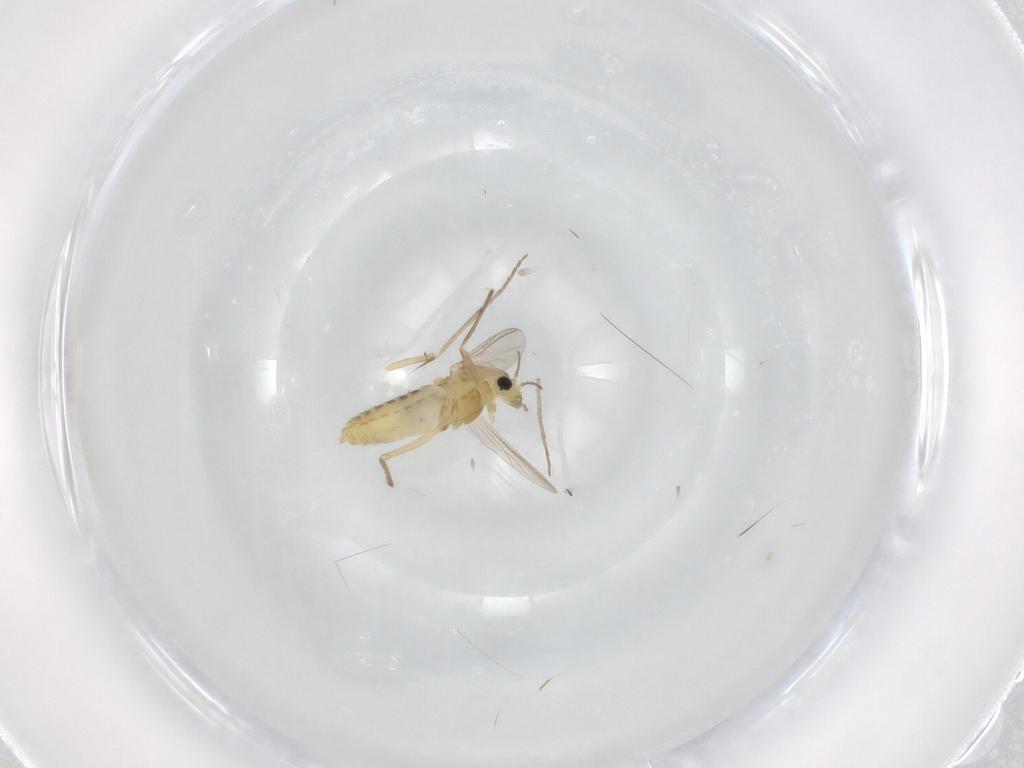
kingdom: Animalia
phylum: Arthropoda
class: Insecta
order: Diptera
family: Chironomidae
